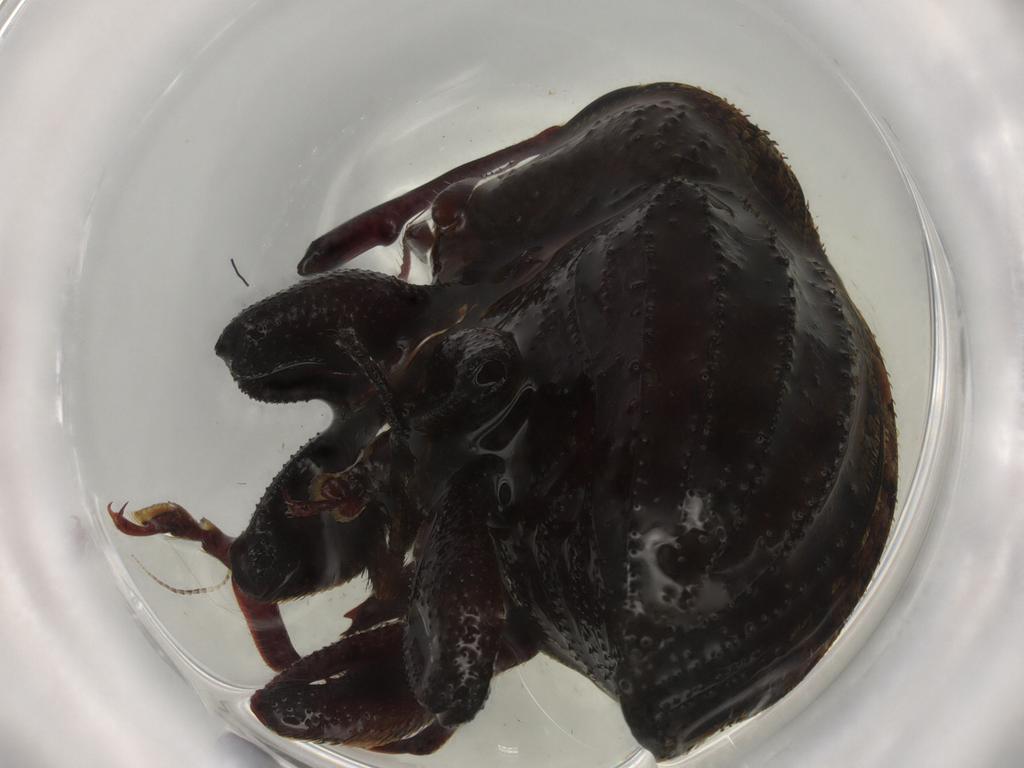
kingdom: Animalia
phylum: Arthropoda
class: Insecta
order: Coleoptera
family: Curculionidae
